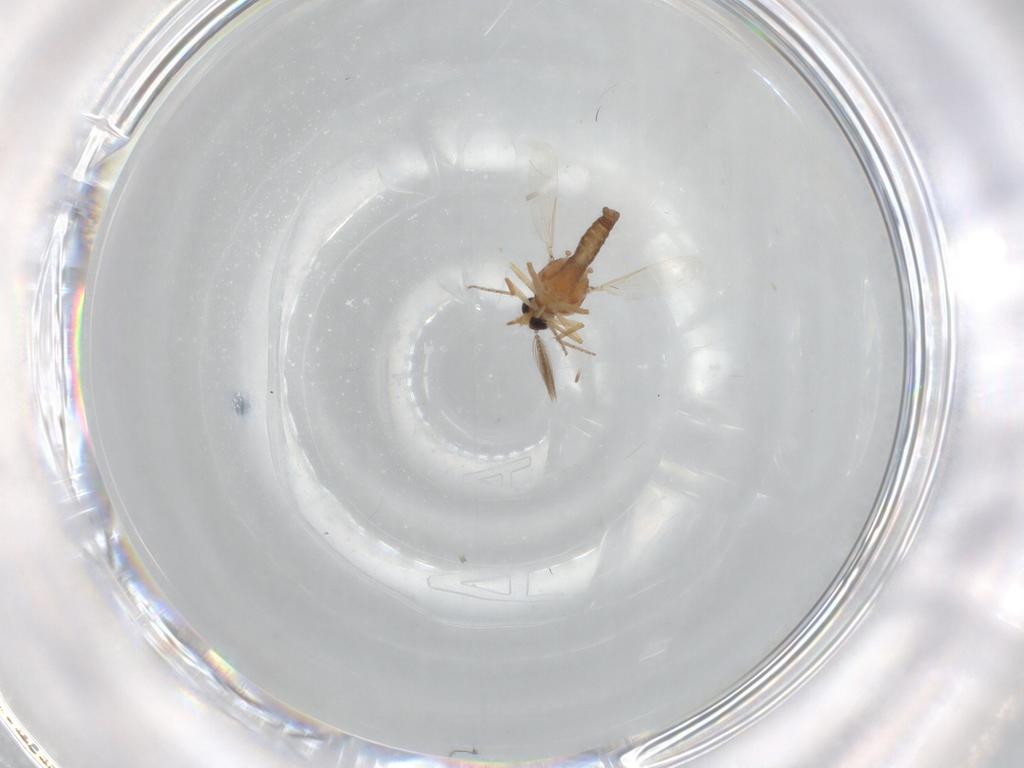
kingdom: Animalia
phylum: Arthropoda
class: Insecta
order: Diptera
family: Ceratopogonidae
